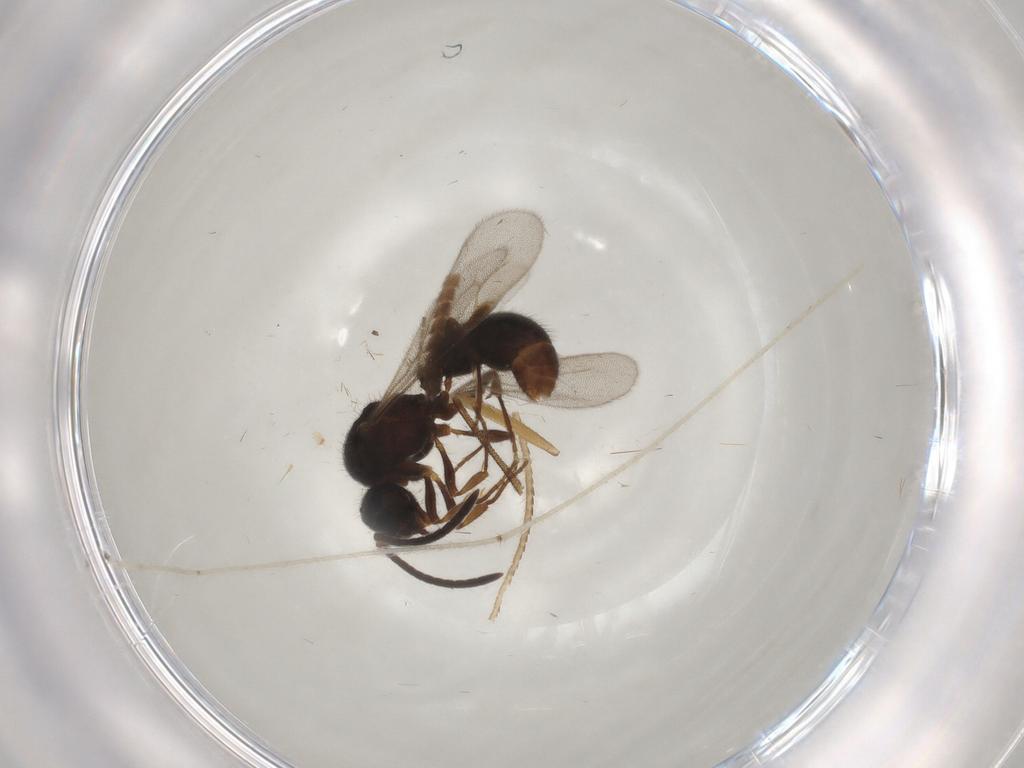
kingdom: Animalia
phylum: Arthropoda
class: Insecta
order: Hymenoptera
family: Formicidae
